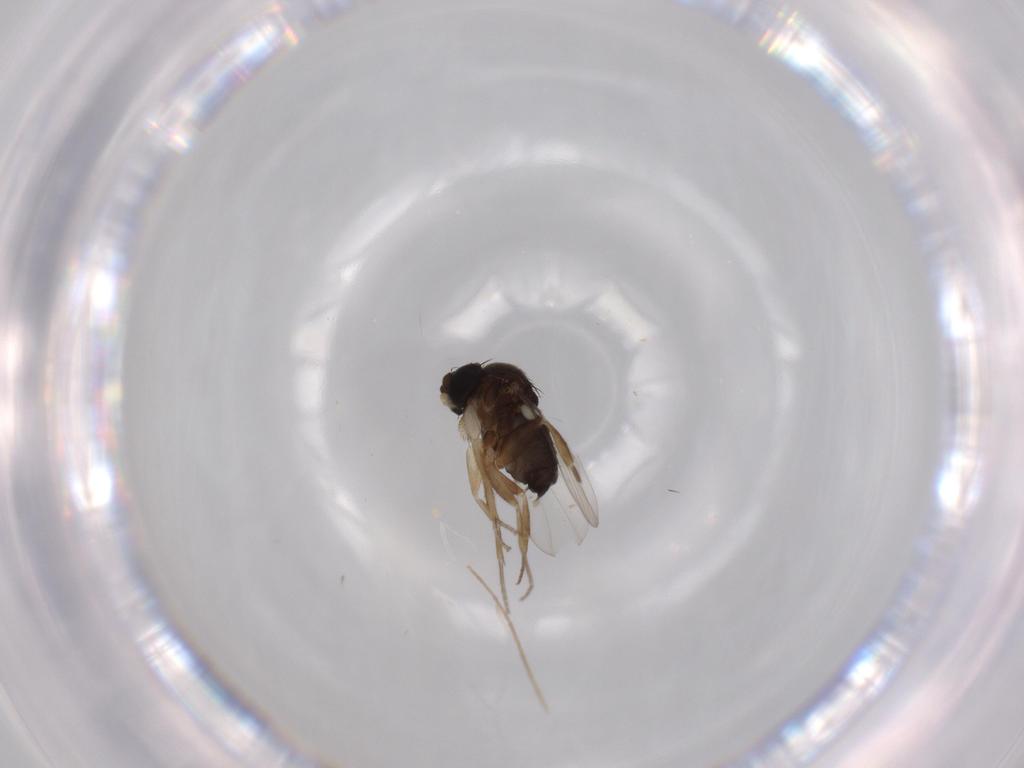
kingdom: Animalia
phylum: Arthropoda
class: Insecta
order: Diptera
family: Chironomidae
